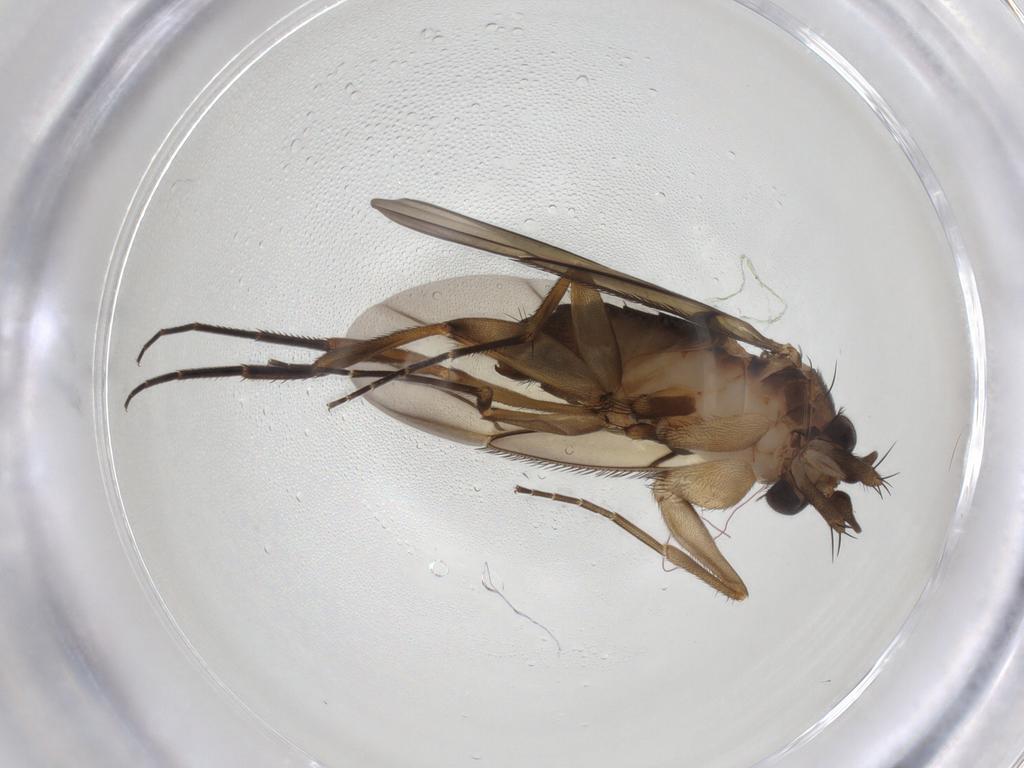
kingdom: Animalia
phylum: Arthropoda
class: Insecta
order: Diptera
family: Phoridae
